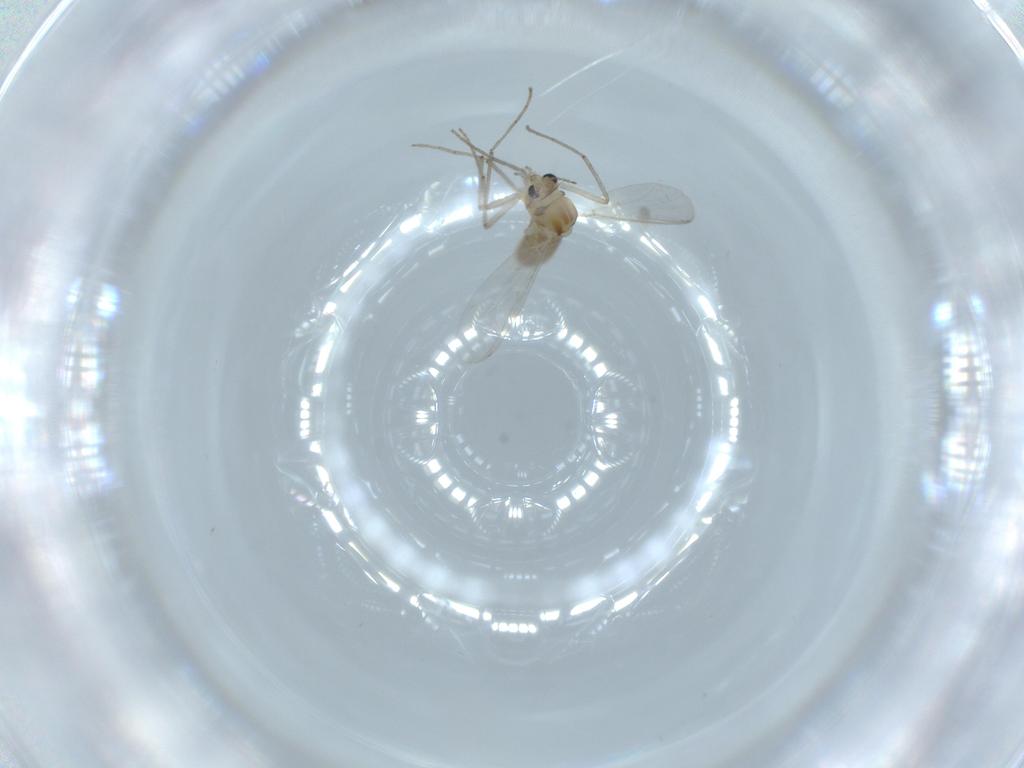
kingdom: Animalia
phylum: Arthropoda
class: Insecta
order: Diptera
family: Chironomidae
